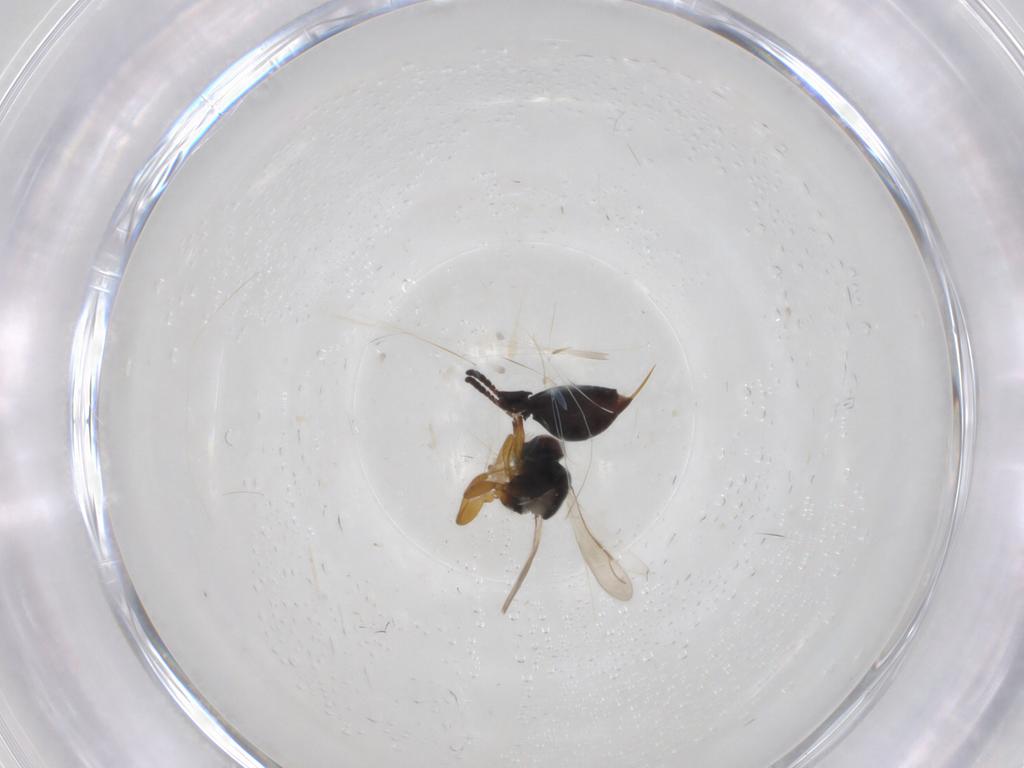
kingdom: Animalia
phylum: Arthropoda
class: Insecta
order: Hymenoptera
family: Ceraphronidae
